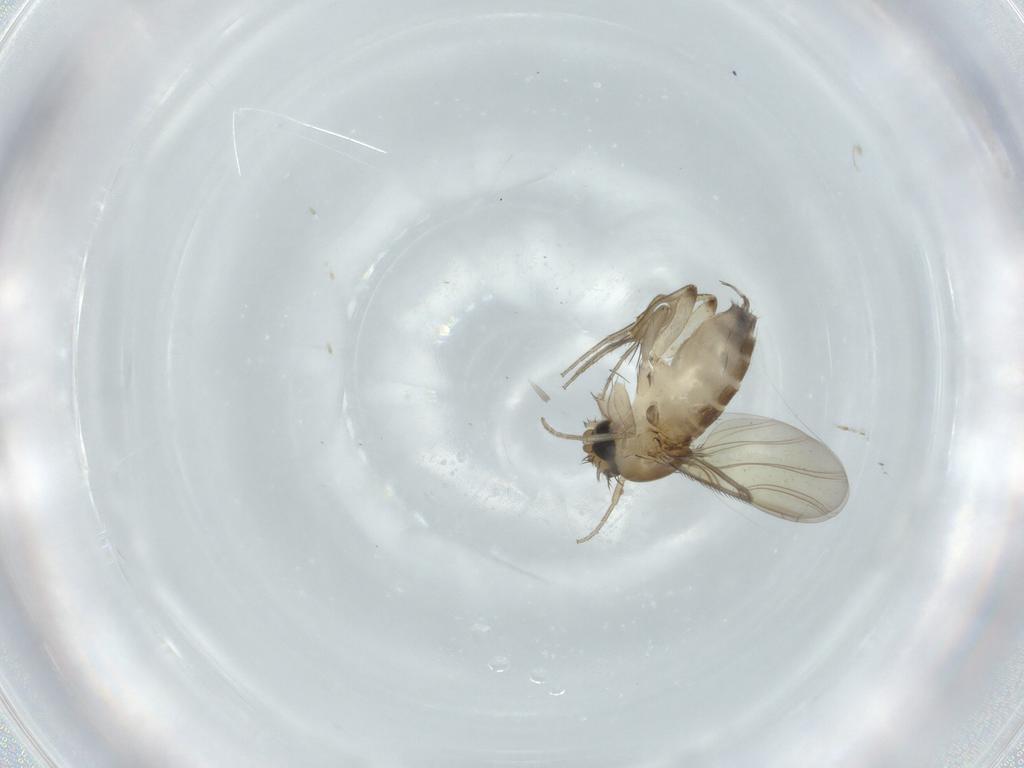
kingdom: Animalia
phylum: Arthropoda
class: Insecta
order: Diptera
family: Phoridae
